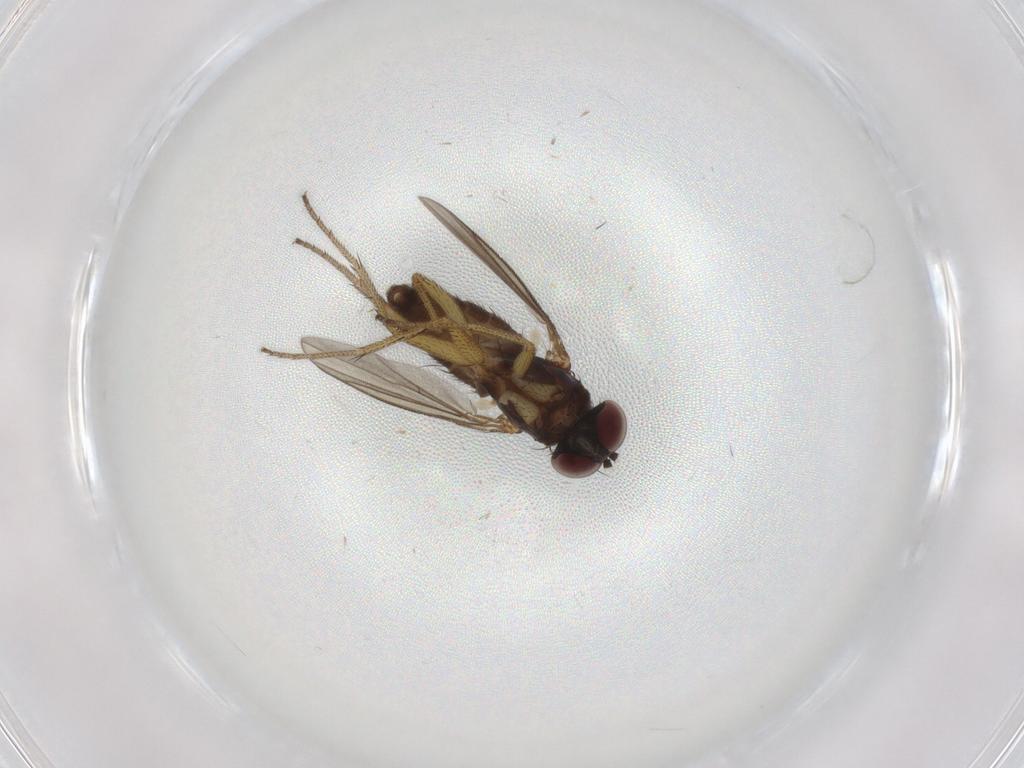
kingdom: Animalia
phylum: Arthropoda
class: Insecta
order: Diptera
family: Dolichopodidae
